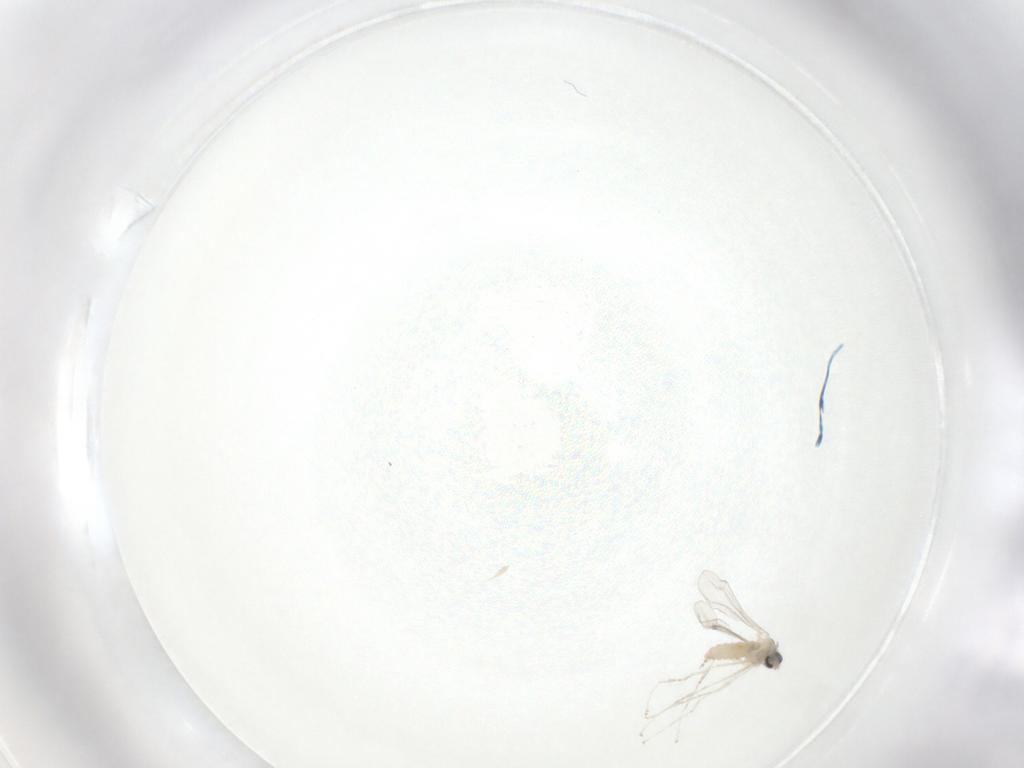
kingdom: Animalia
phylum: Arthropoda
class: Insecta
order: Diptera
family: Cecidomyiidae
